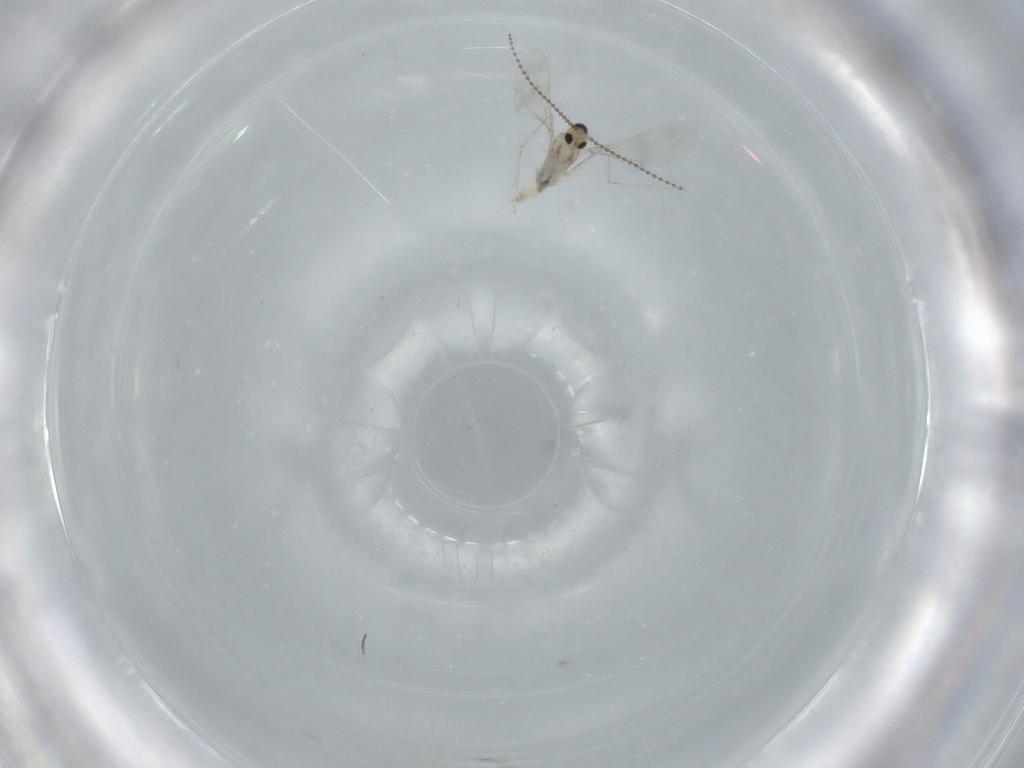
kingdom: Animalia
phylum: Arthropoda
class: Insecta
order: Diptera
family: Cecidomyiidae
